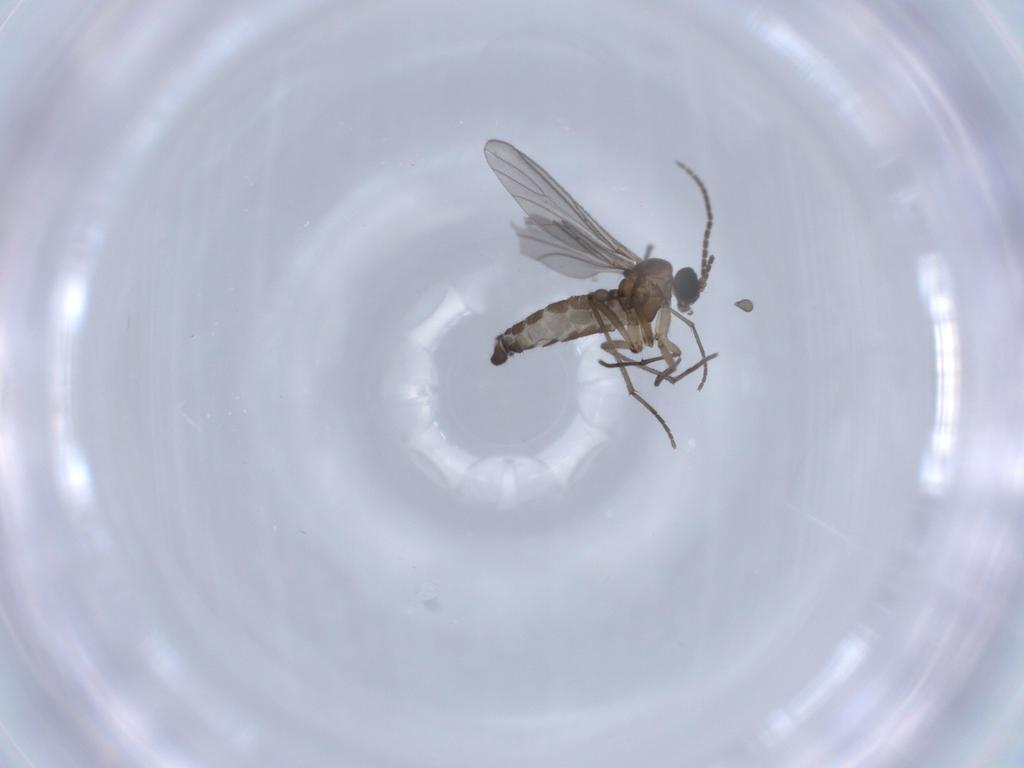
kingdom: Animalia
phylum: Arthropoda
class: Insecta
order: Diptera
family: Sciaridae
